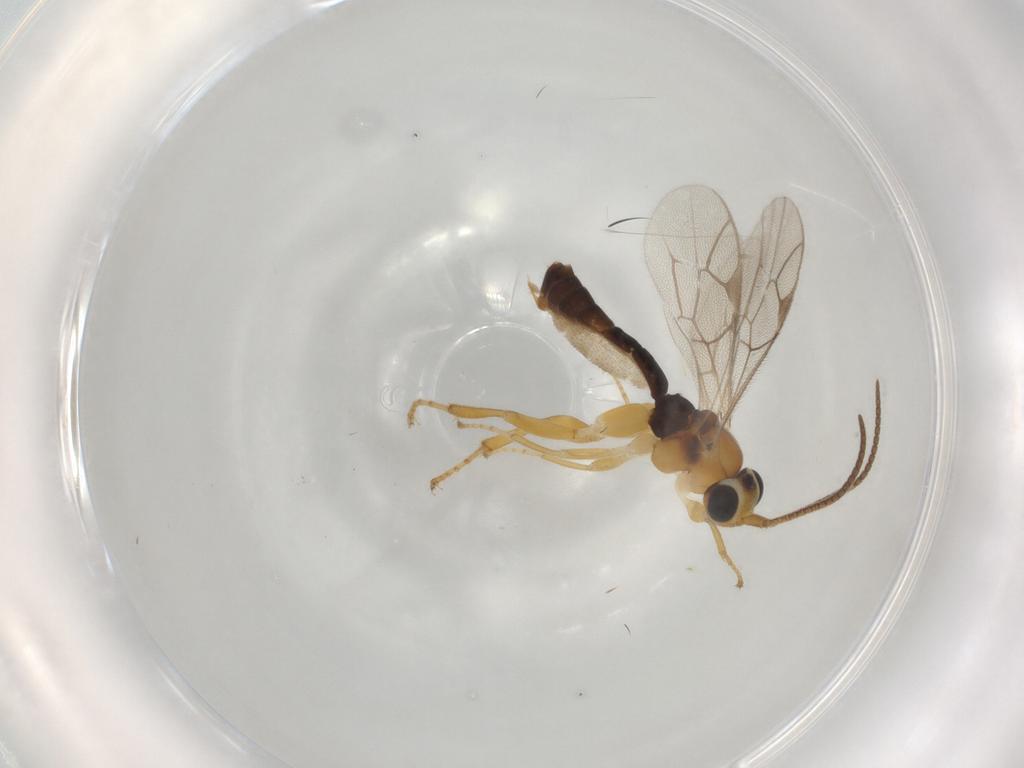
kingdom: Animalia
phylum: Arthropoda
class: Insecta
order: Hymenoptera
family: Ichneumonidae
